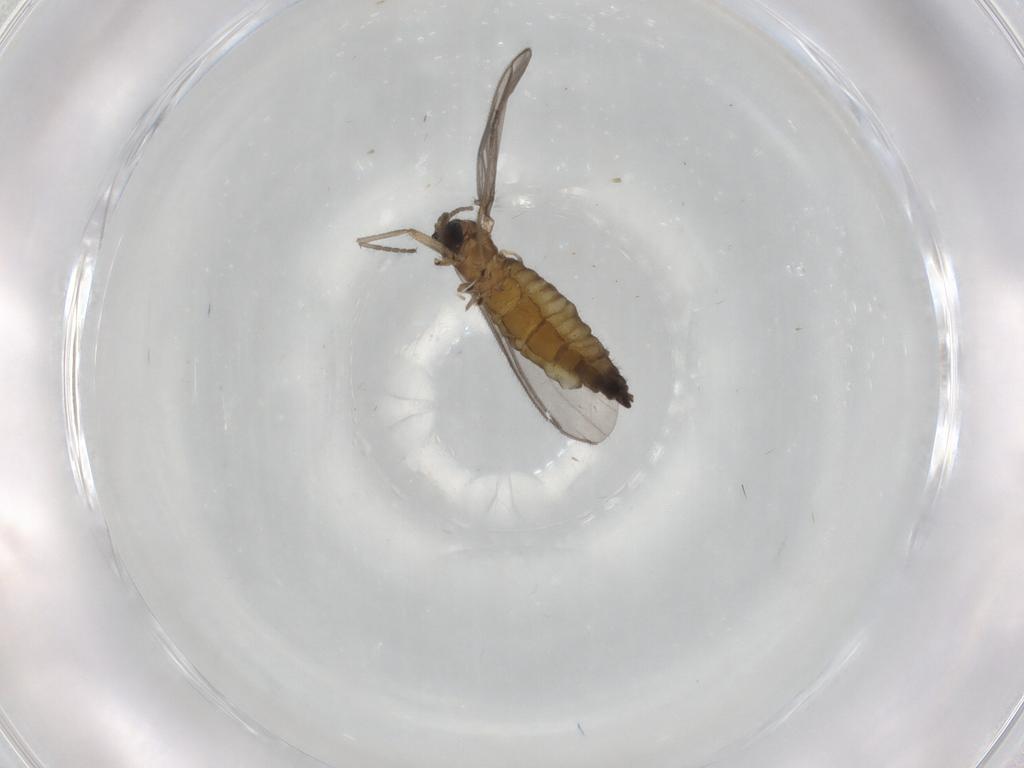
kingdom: Animalia
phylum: Arthropoda
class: Insecta
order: Diptera
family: Sciaridae
